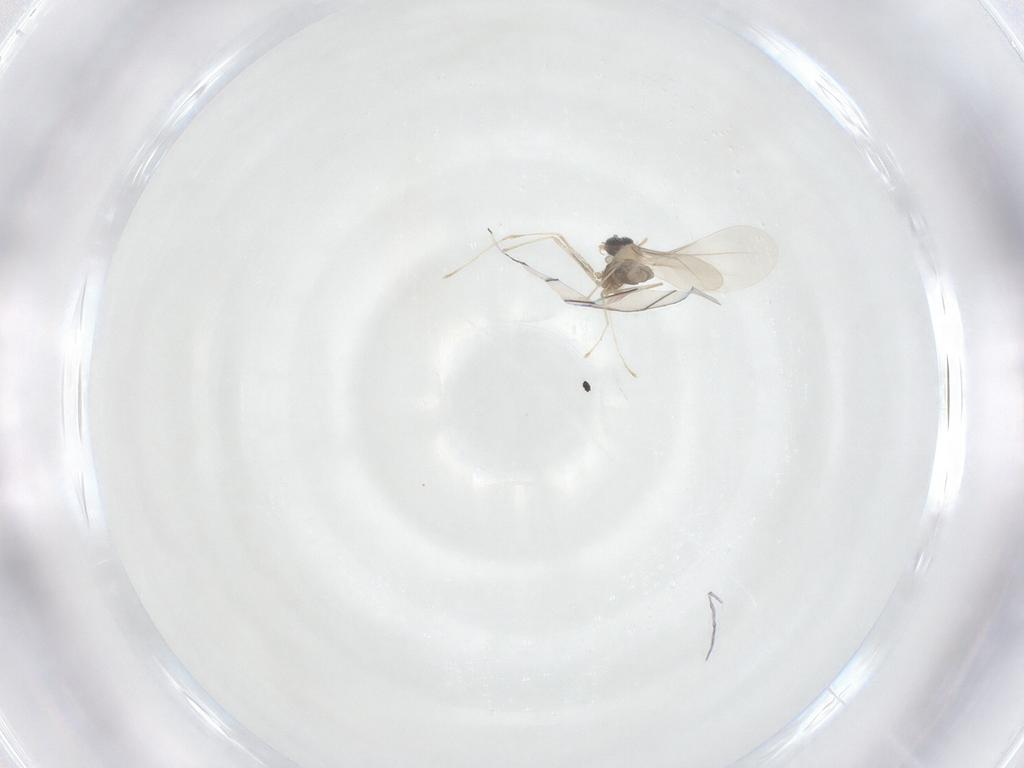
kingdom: Animalia
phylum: Arthropoda
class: Insecta
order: Diptera
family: Cecidomyiidae
